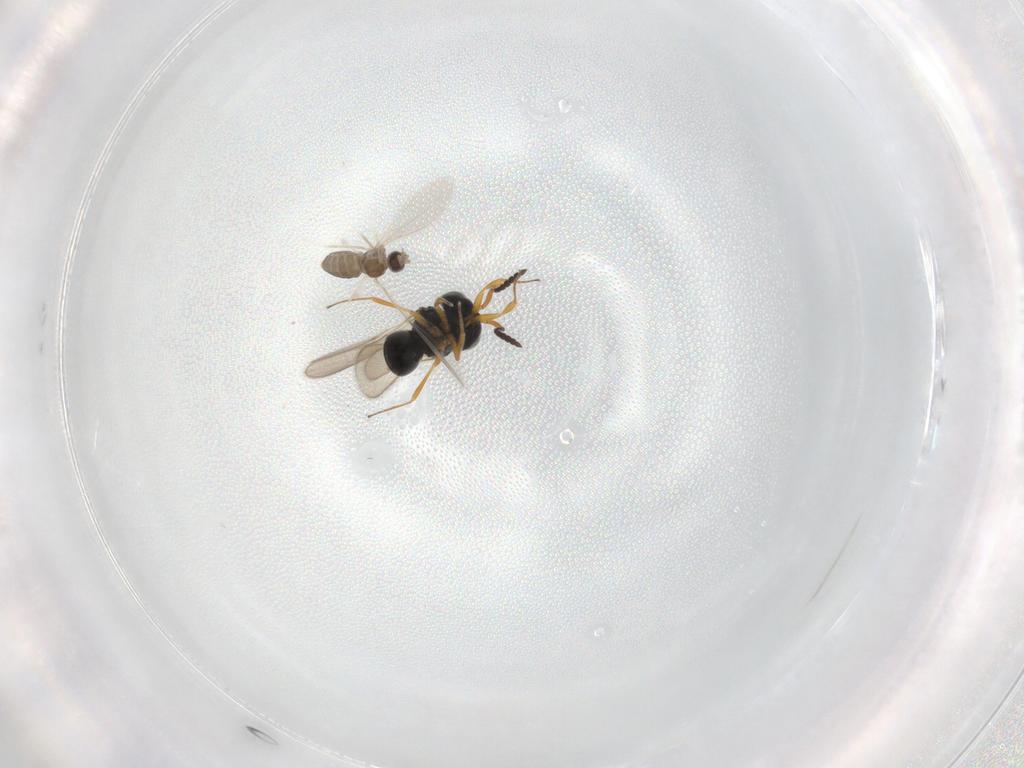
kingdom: Animalia
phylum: Arthropoda
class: Insecta
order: Hymenoptera
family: Scelionidae
